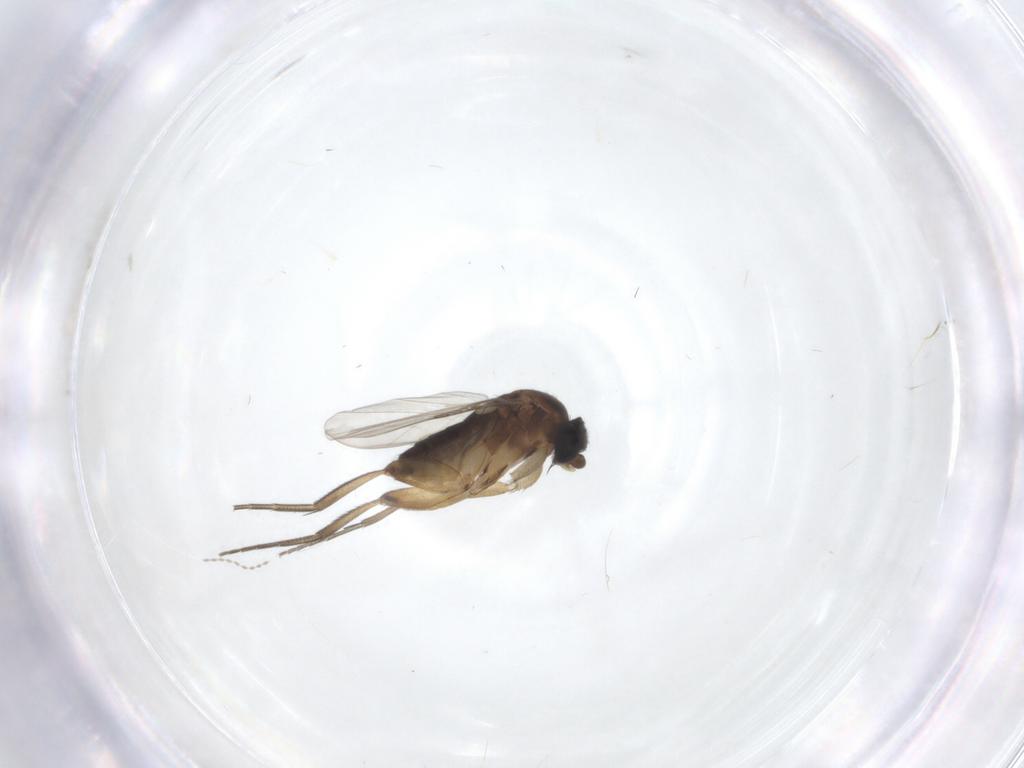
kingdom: Animalia
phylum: Arthropoda
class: Insecta
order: Diptera
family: Phoridae
